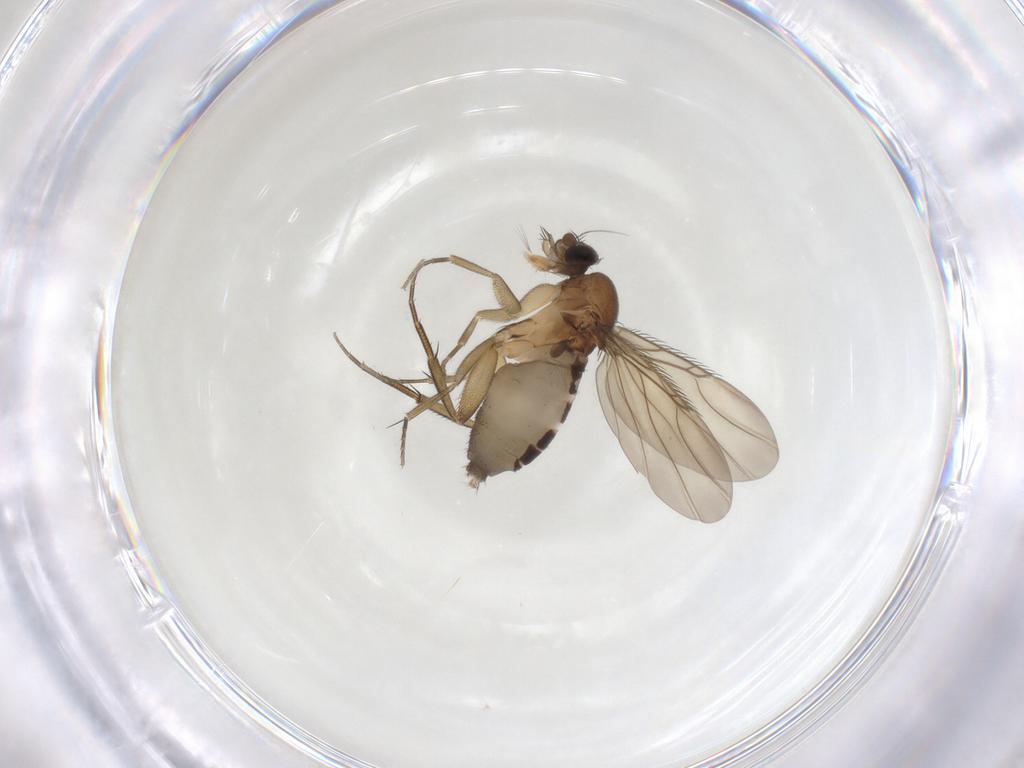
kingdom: Animalia
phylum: Arthropoda
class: Insecta
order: Diptera
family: Phoridae
